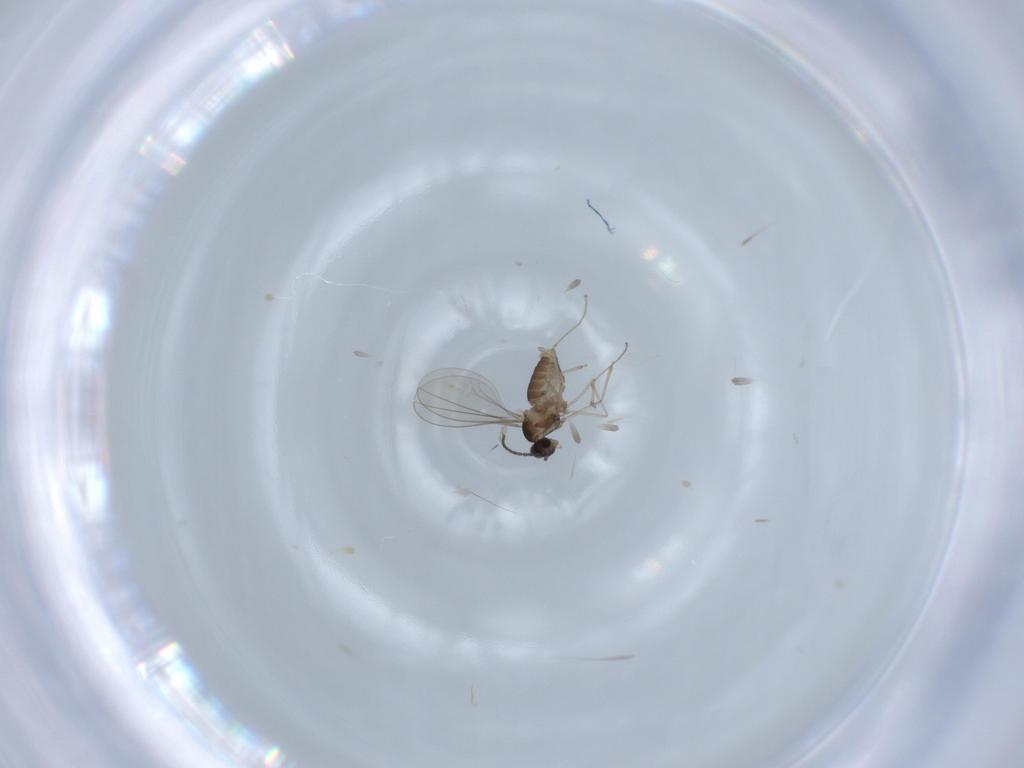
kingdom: Animalia
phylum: Arthropoda
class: Insecta
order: Diptera
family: Cecidomyiidae
